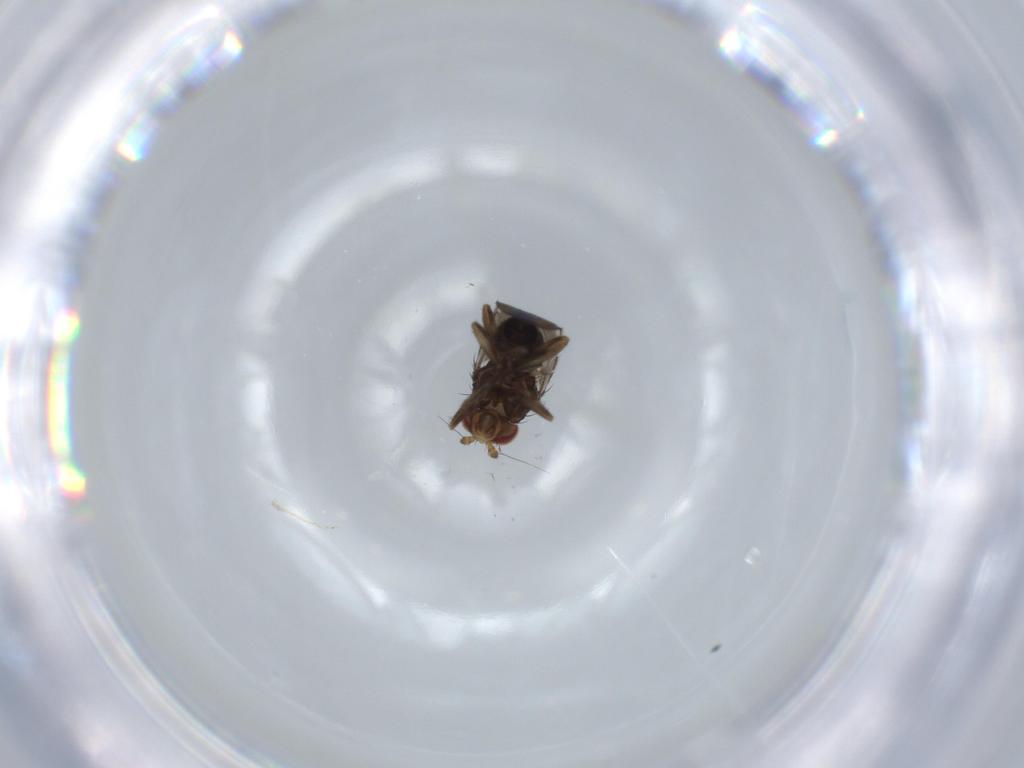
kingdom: Animalia
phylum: Arthropoda
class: Insecta
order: Diptera
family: Sphaeroceridae
